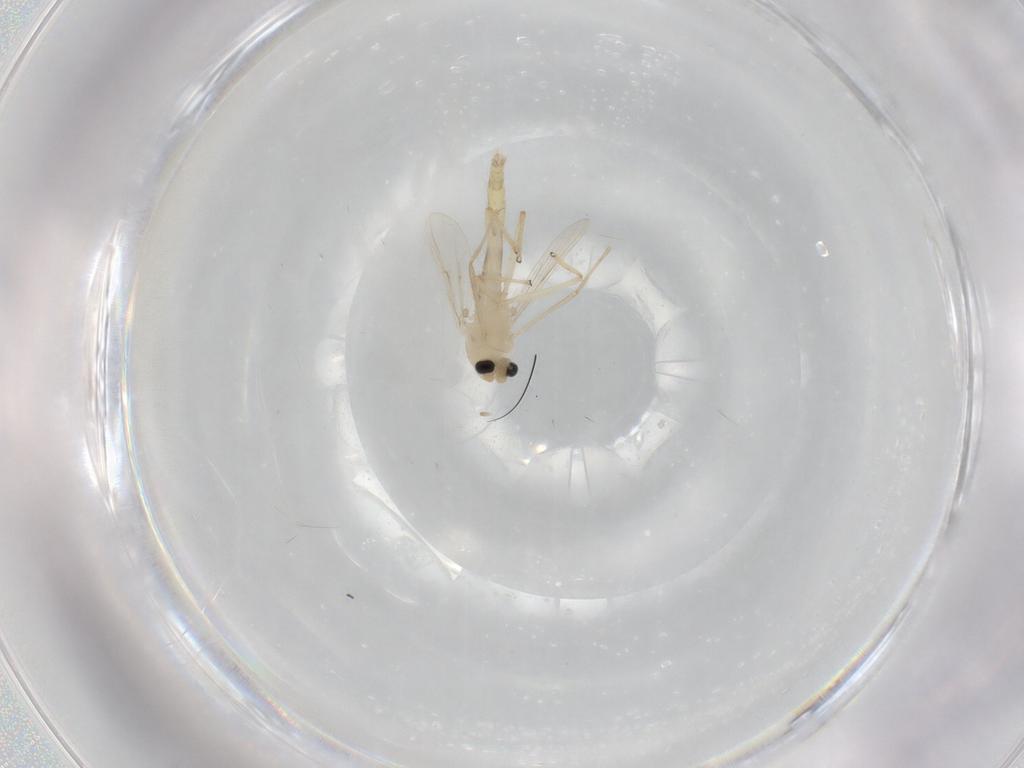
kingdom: Animalia
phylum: Arthropoda
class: Insecta
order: Diptera
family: Chironomidae
